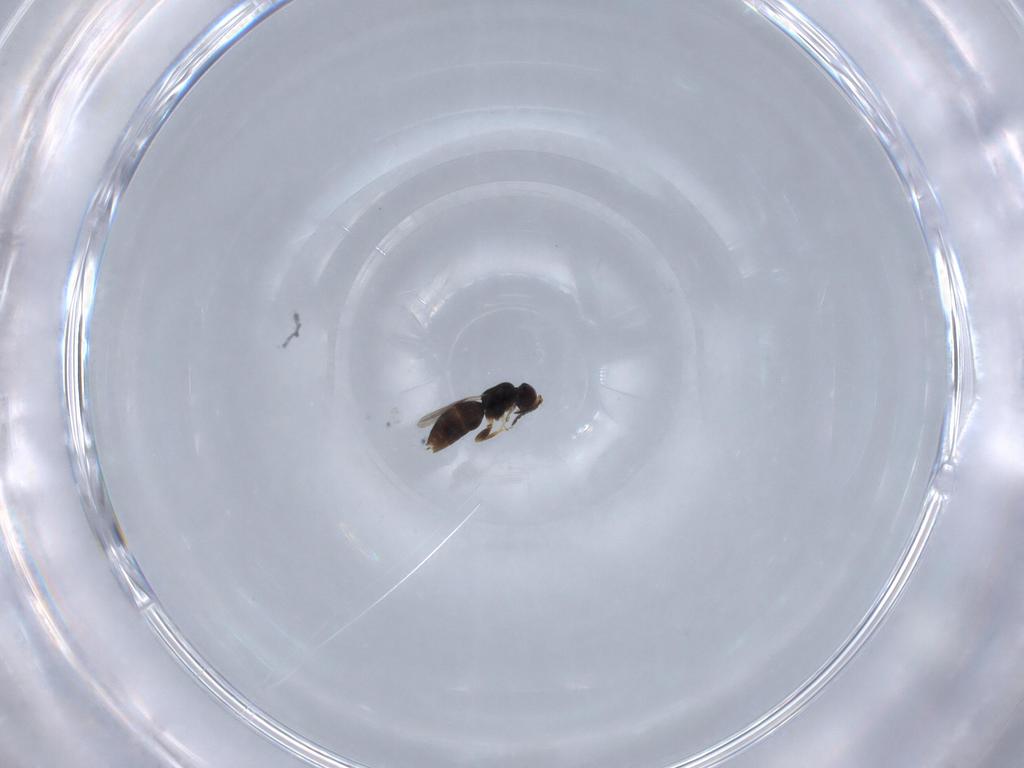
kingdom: Animalia
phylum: Arthropoda
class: Insecta
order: Hymenoptera
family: Ceraphronidae
